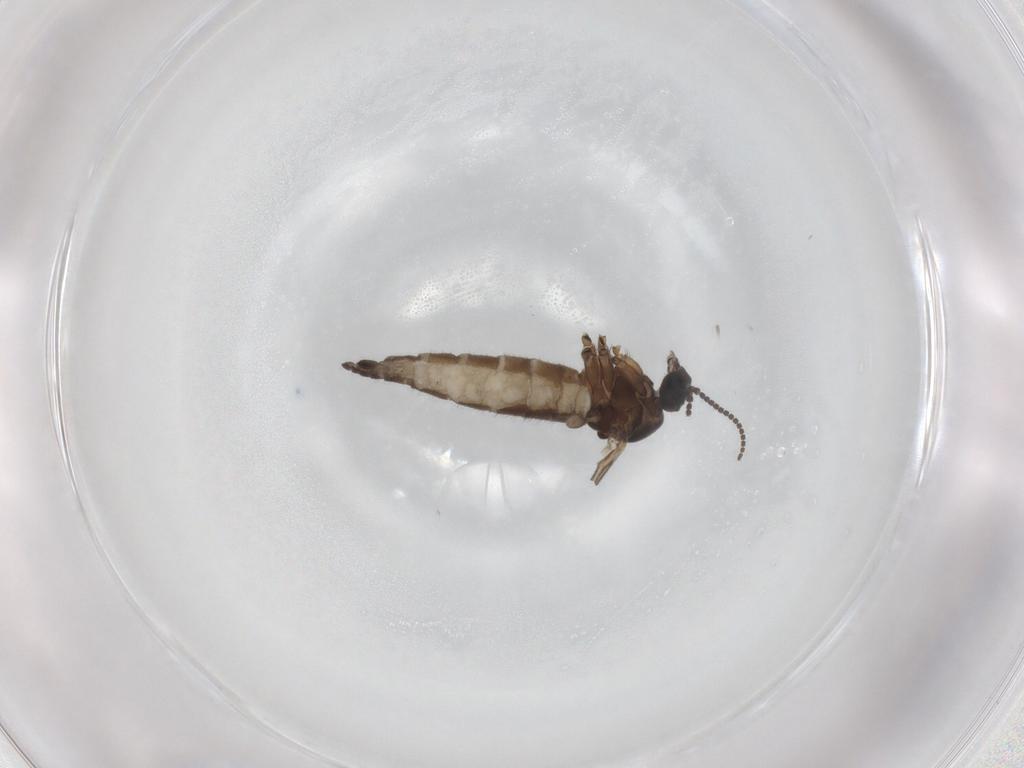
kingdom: Animalia
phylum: Arthropoda
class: Insecta
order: Diptera
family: Sciaridae
